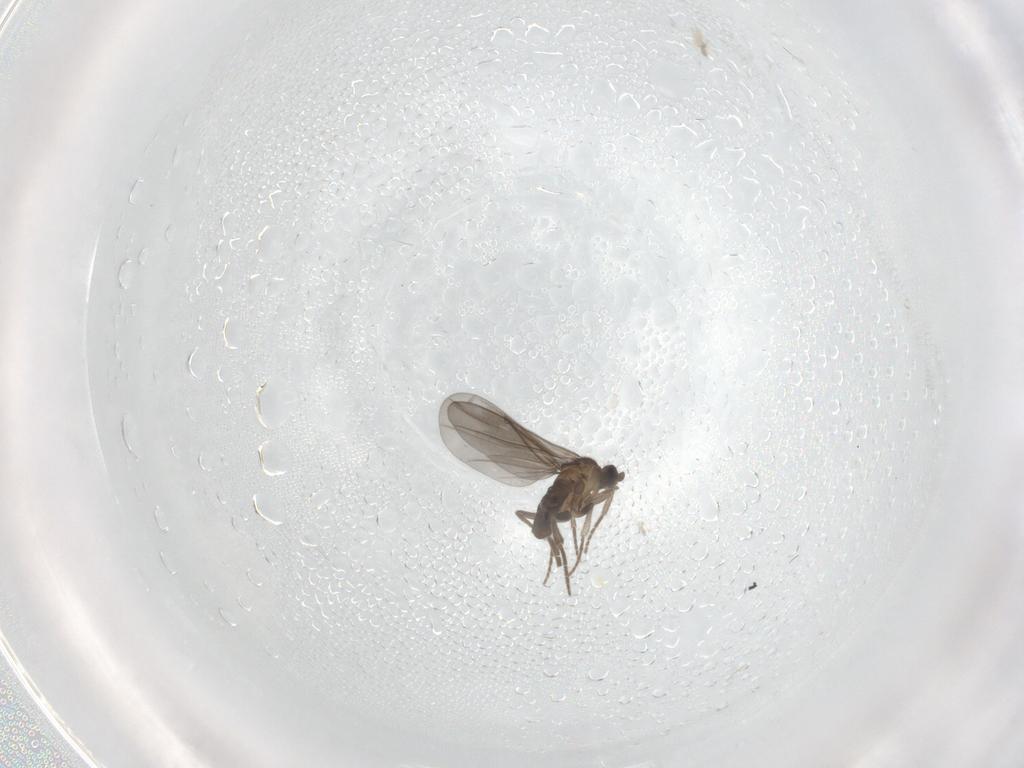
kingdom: Animalia
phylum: Arthropoda
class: Insecta
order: Diptera
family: Phoridae
